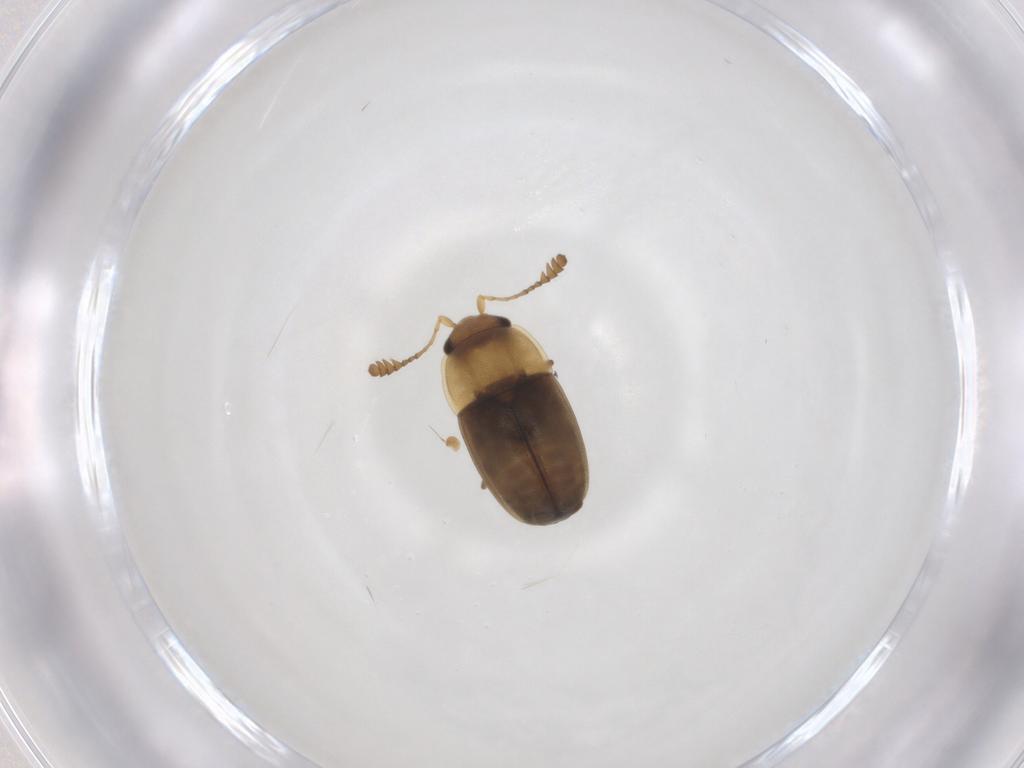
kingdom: Animalia
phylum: Arthropoda
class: Insecta
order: Coleoptera
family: Nitidulidae
